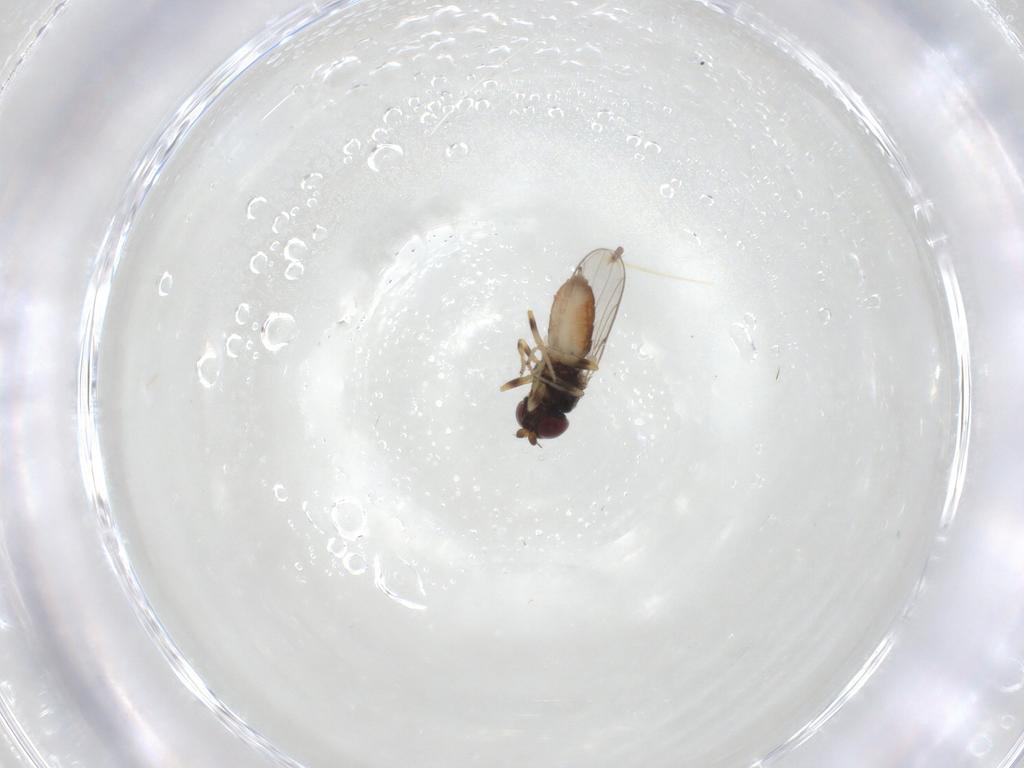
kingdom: Animalia
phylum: Arthropoda
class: Insecta
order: Diptera
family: Chloropidae
